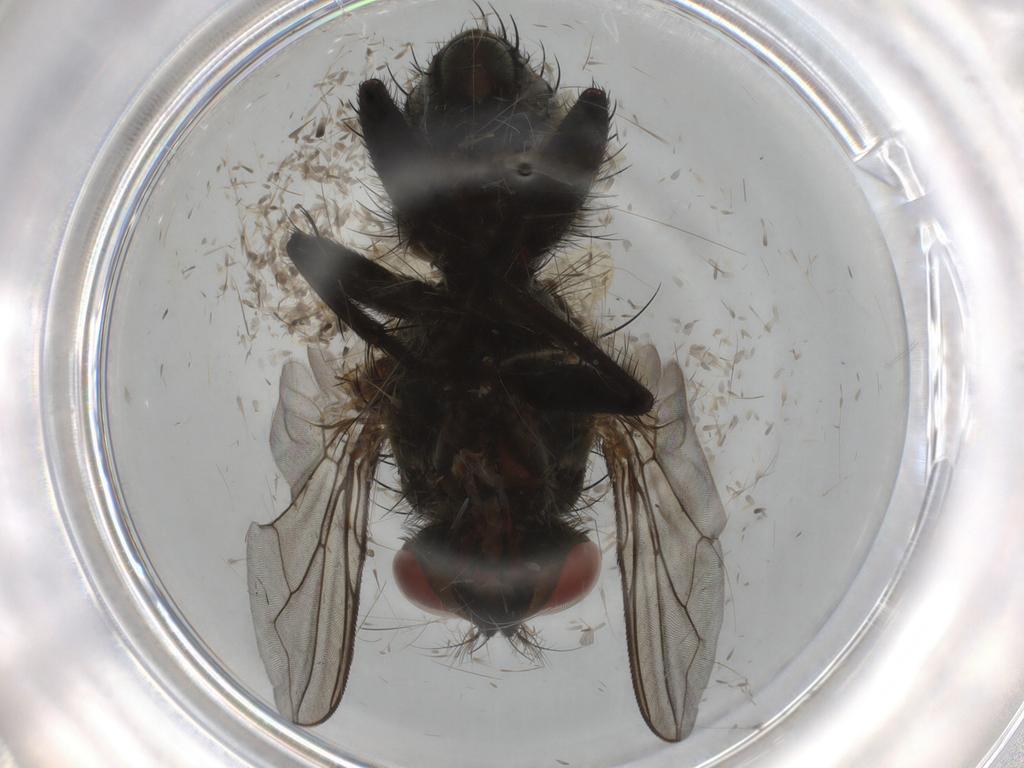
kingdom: Animalia
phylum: Arthropoda
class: Insecta
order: Diptera
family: Sarcophagidae
